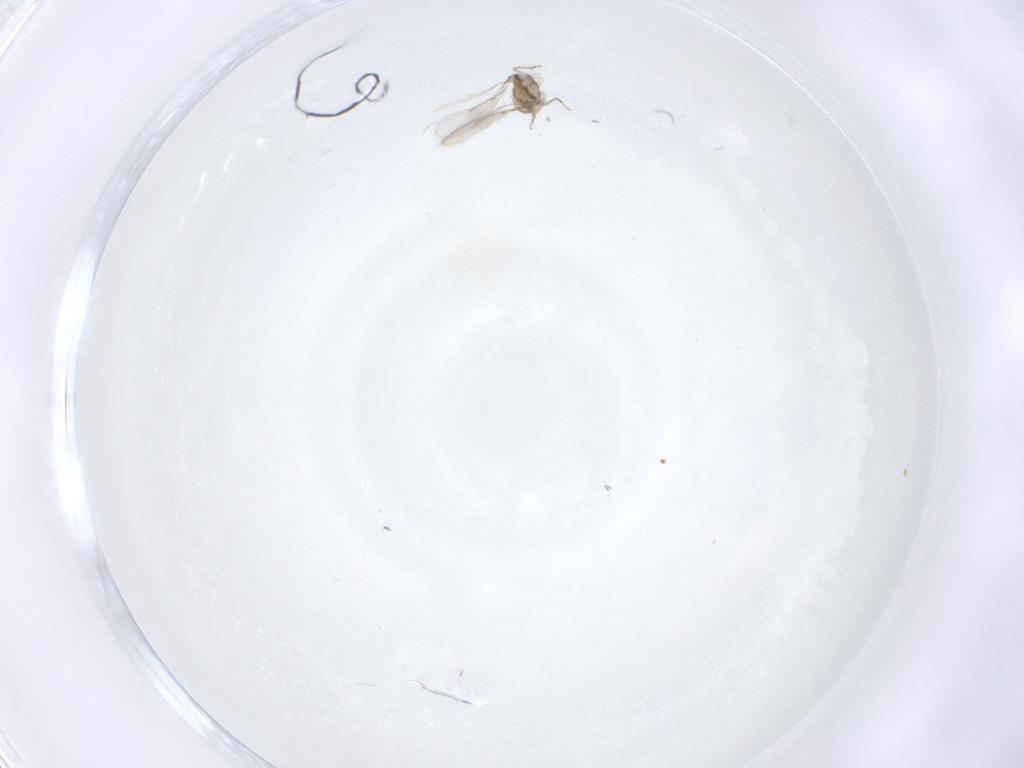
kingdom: Animalia
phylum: Arthropoda
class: Insecta
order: Hymenoptera
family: Aphelinidae
